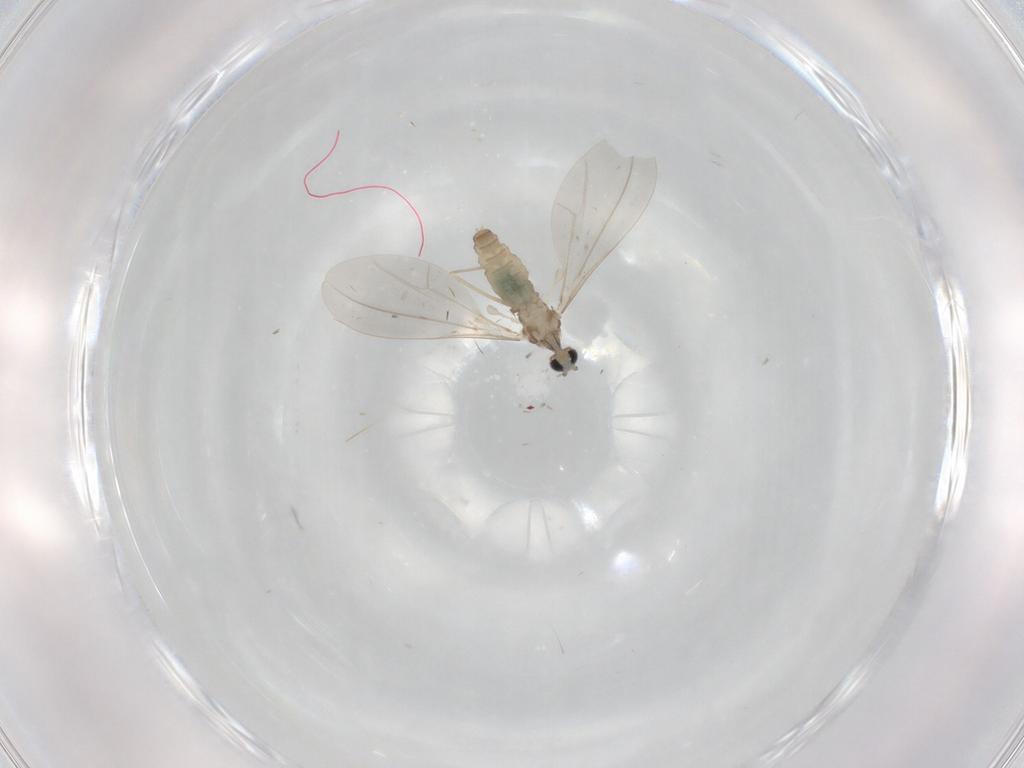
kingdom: Animalia
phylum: Arthropoda
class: Insecta
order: Diptera
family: Cecidomyiidae
